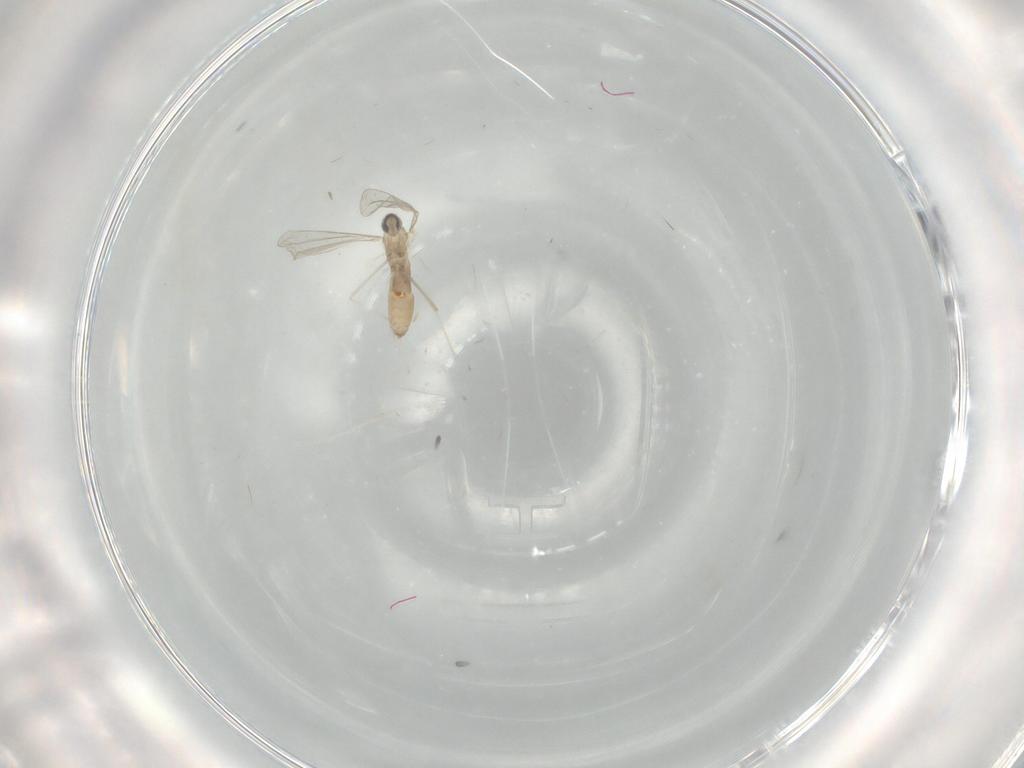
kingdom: Animalia
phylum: Arthropoda
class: Insecta
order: Diptera
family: Cecidomyiidae
